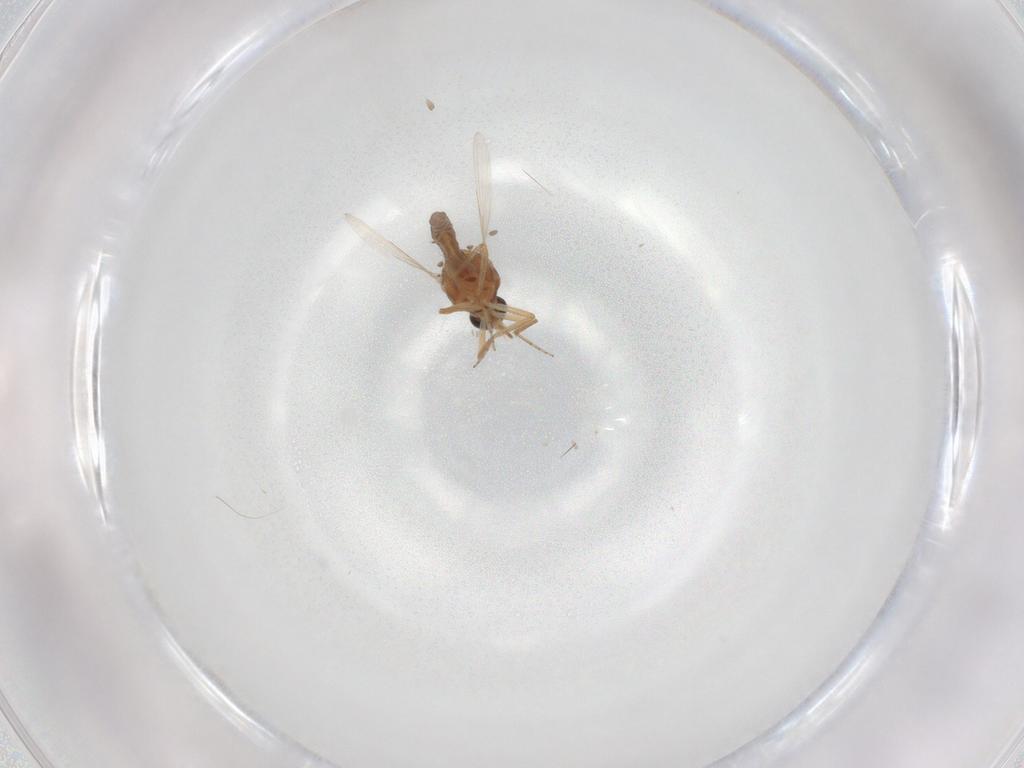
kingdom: Animalia
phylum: Arthropoda
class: Insecta
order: Diptera
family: Ceratopogonidae
